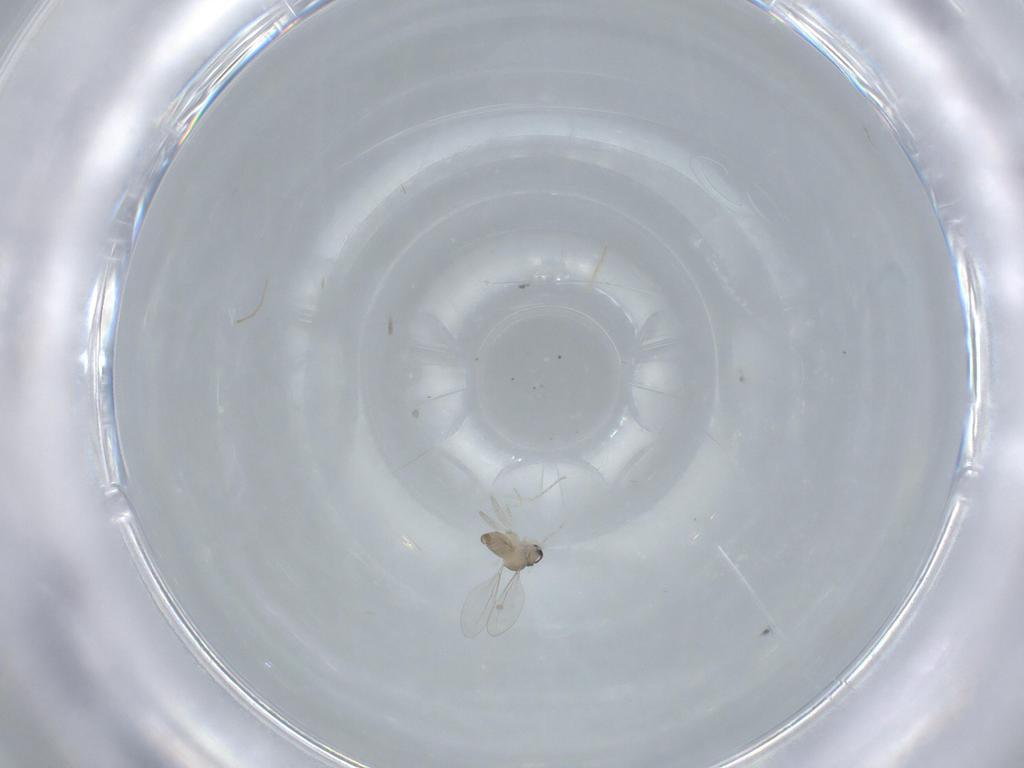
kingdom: Animalia
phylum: Arthropoda
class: Insecta
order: Diptera
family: Cecidomyiidae
